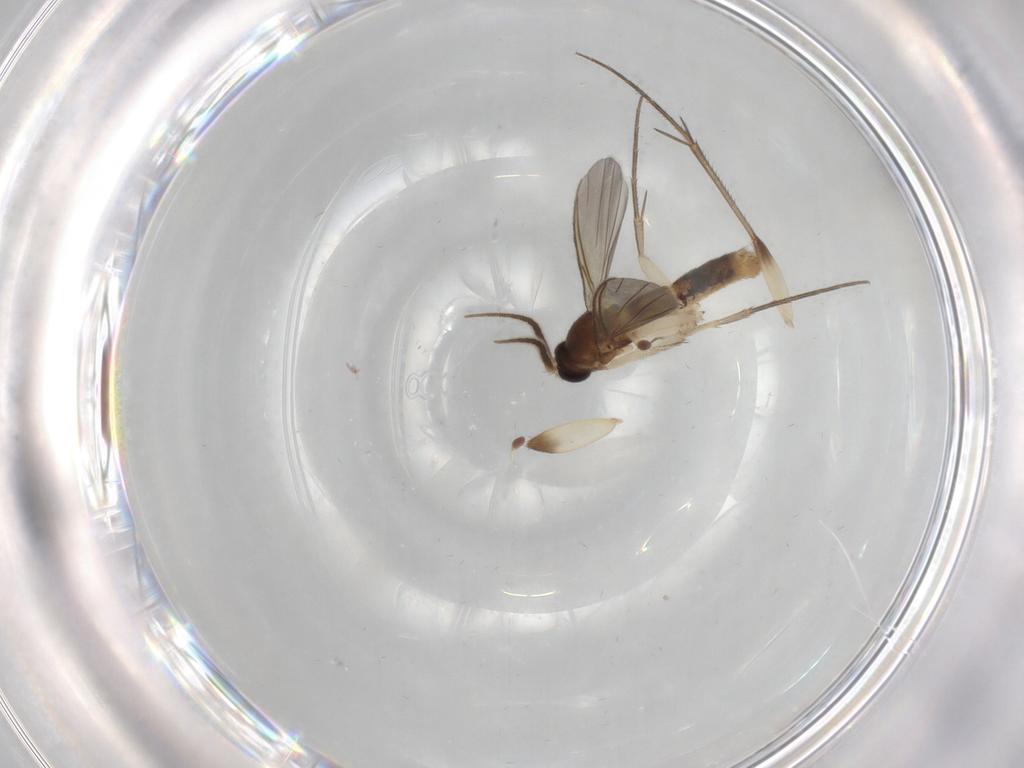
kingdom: Animalia
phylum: Arthropoda
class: Insecta
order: Diptera
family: Mycetophilidae
